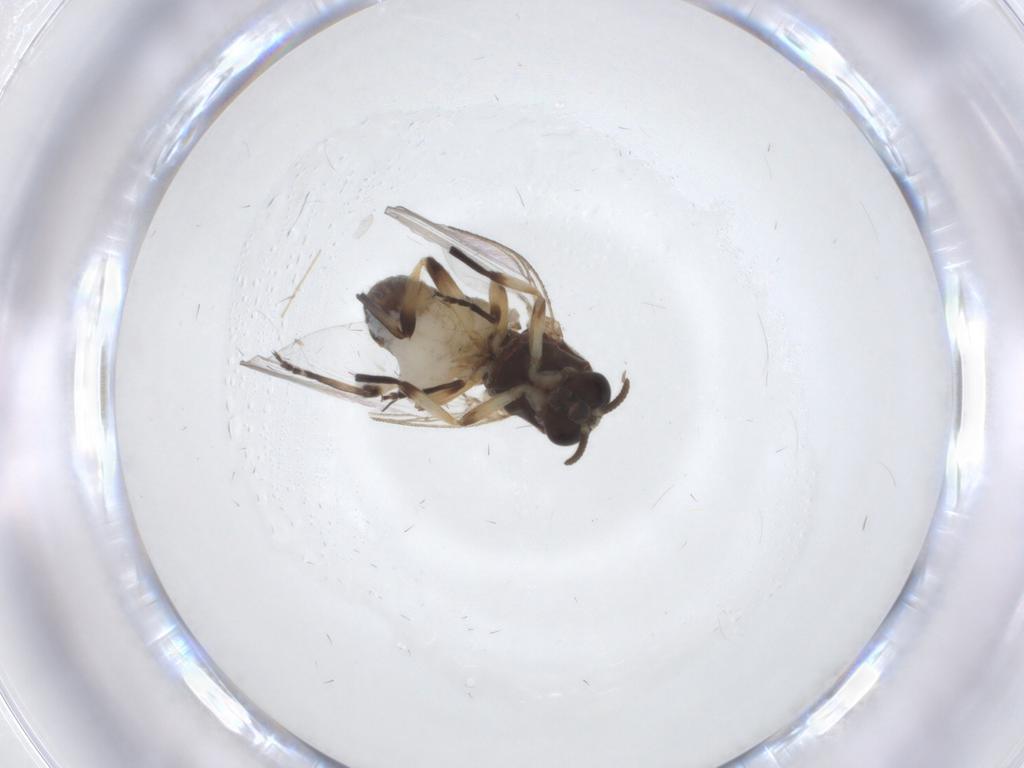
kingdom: Animalia
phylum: Arthropoda
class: Insecta
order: Diptera
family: Simuliidae
